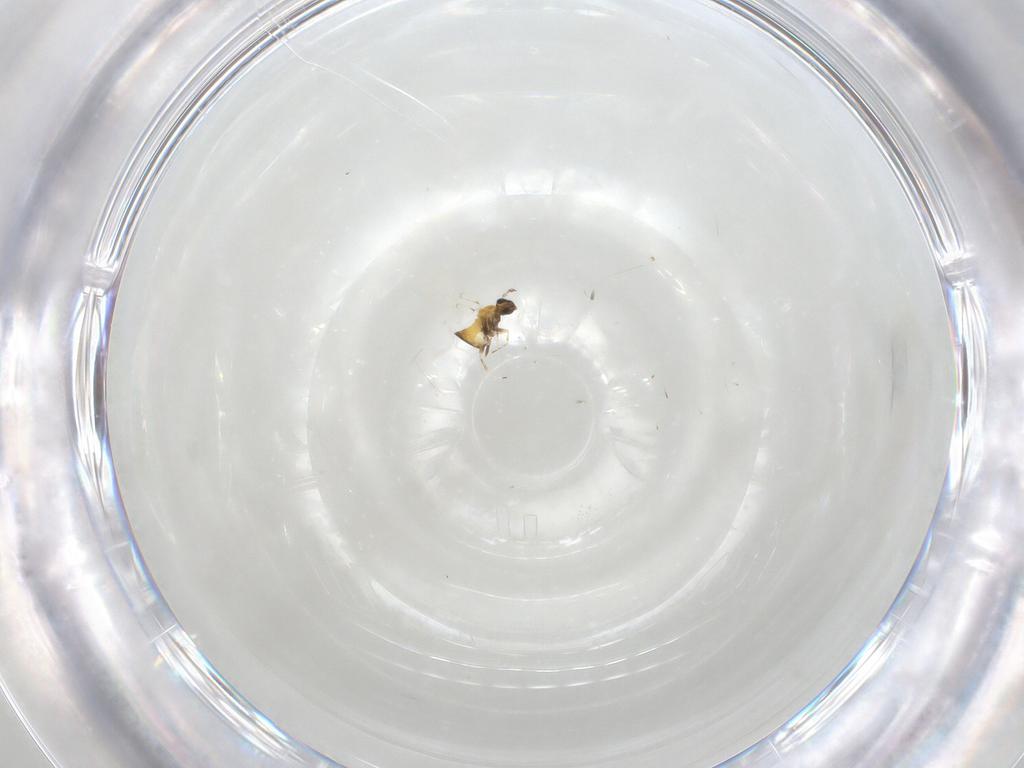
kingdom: Animalia
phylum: Arthropoda
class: Insecta
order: Hymenoptera
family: Trichogrammatidae
